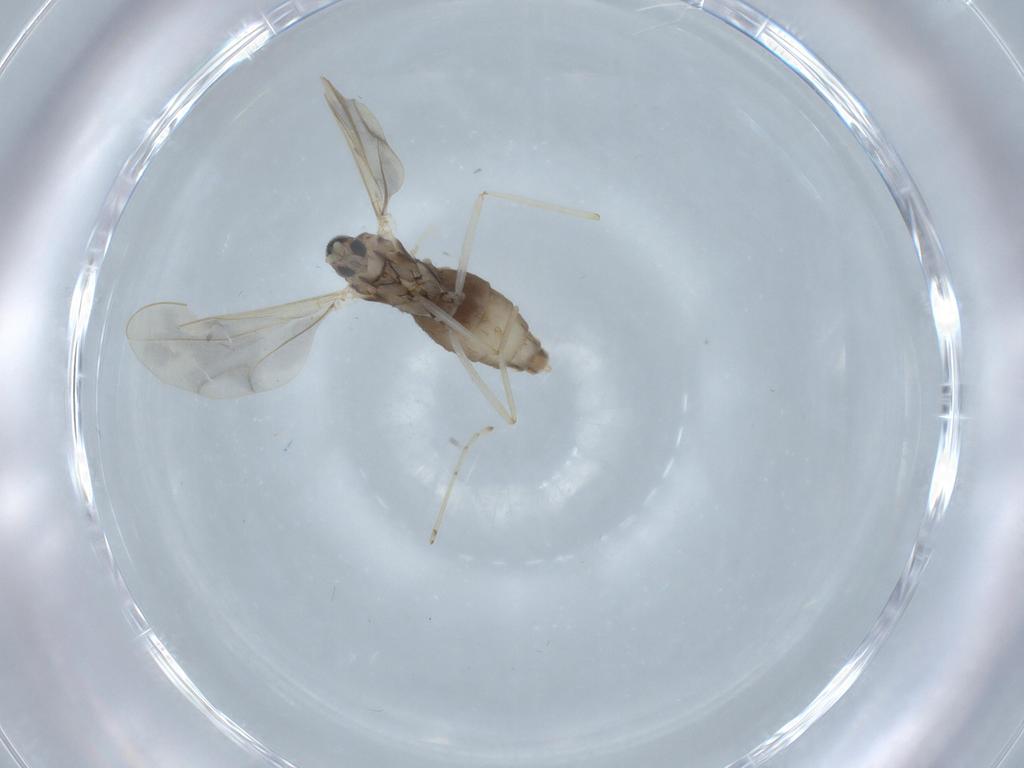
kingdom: Animalia
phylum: Arthropoda
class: Insecta
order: Diptera
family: Cecidomyiidae
